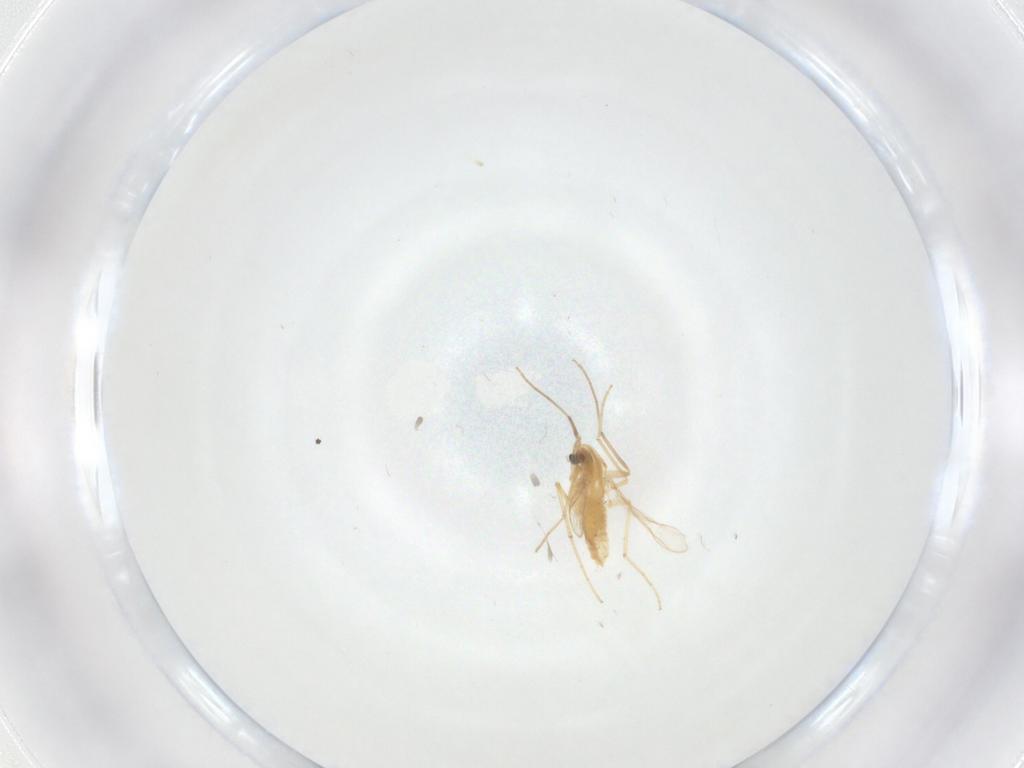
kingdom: Animalia
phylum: Arthropoda
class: Insecta
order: Diptera
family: Chironomidae
